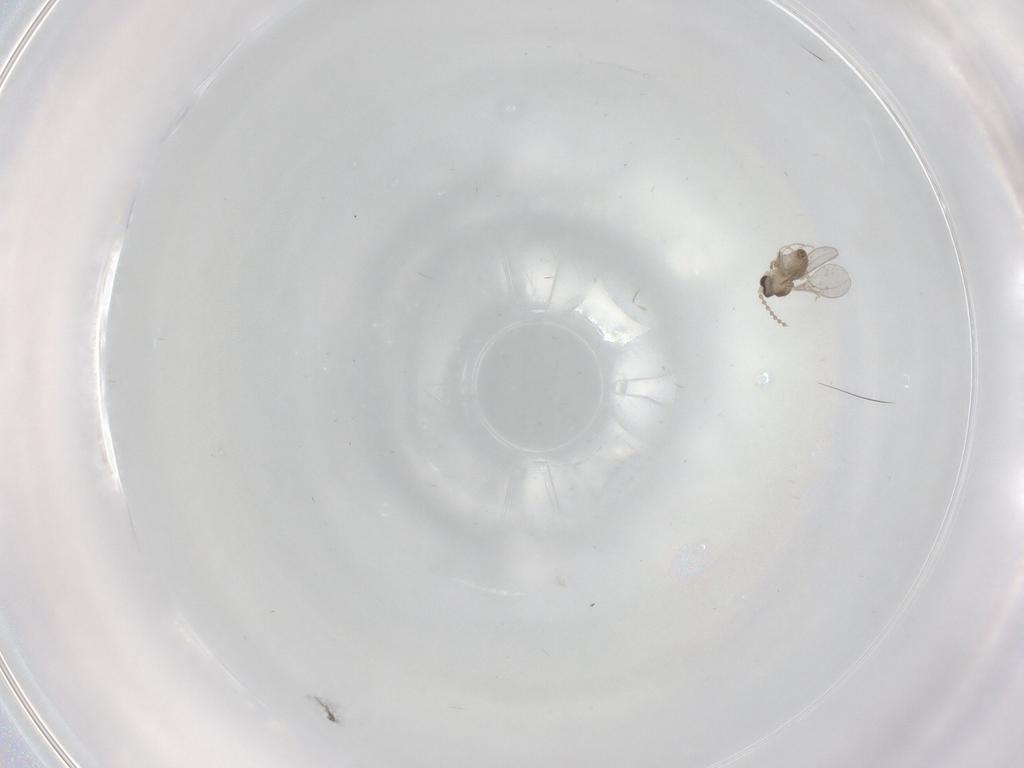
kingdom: Animalia
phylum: Arthropoda
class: Insecta
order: Diptera
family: Cecidomyiidae
